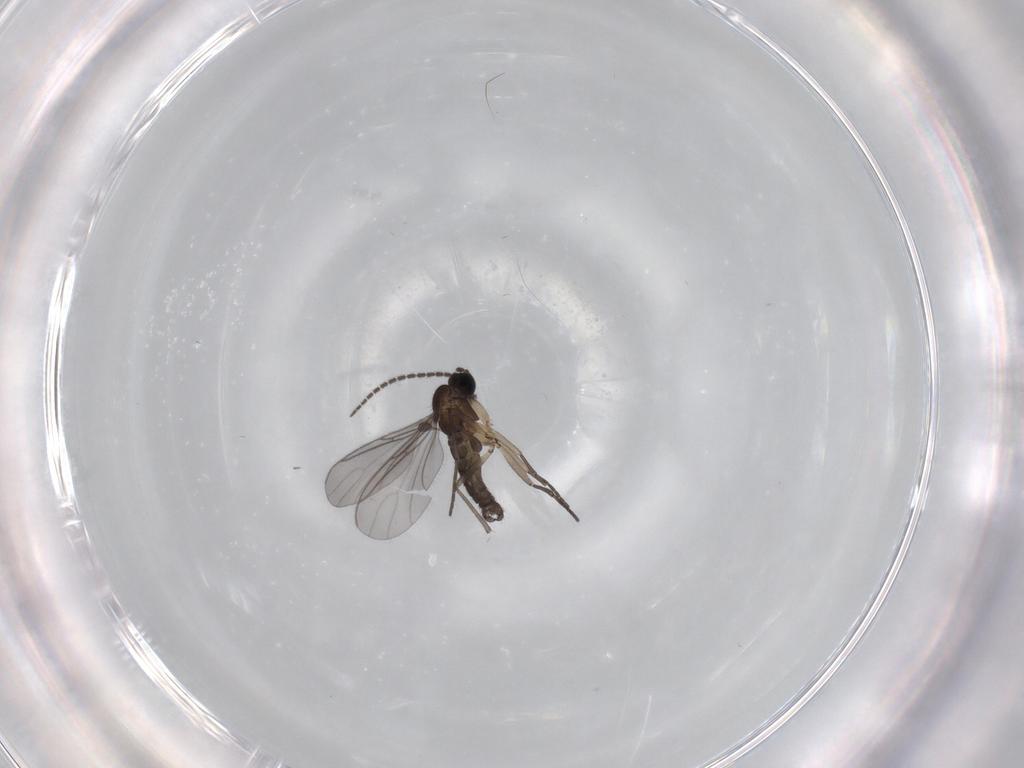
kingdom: Animalia
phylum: Arthropoda
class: Insecta
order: Diptera
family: Sciaridae
